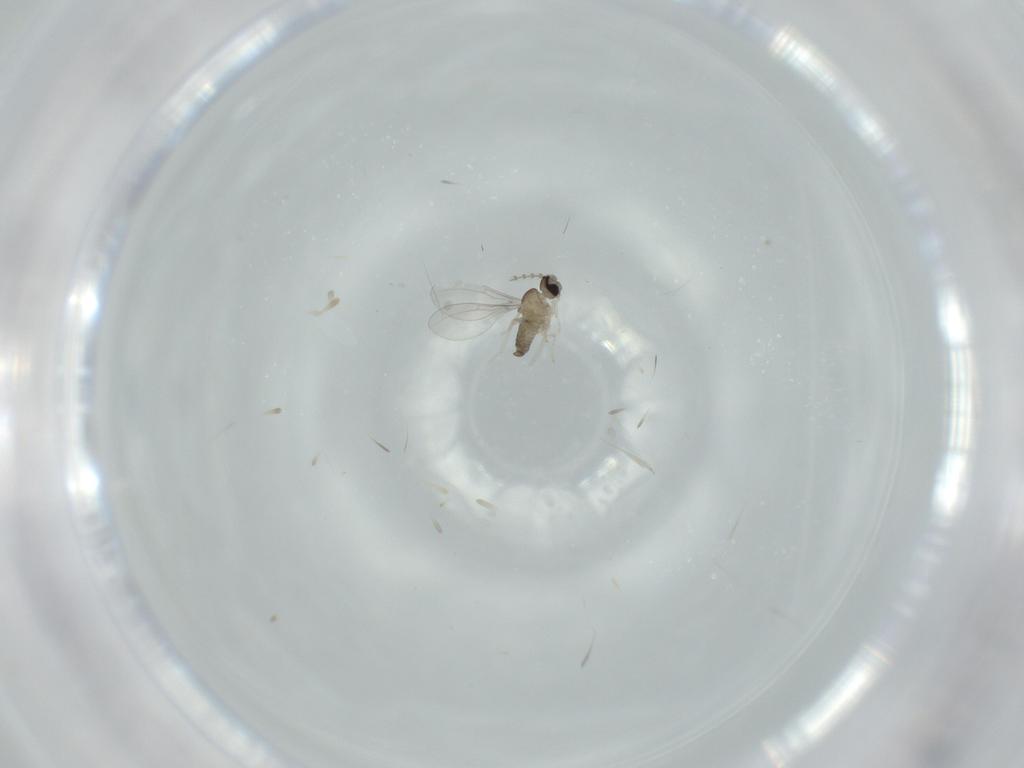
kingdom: Animalia
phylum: Arthropoda
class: Insecta
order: Diptera
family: Cecidomyiidae
